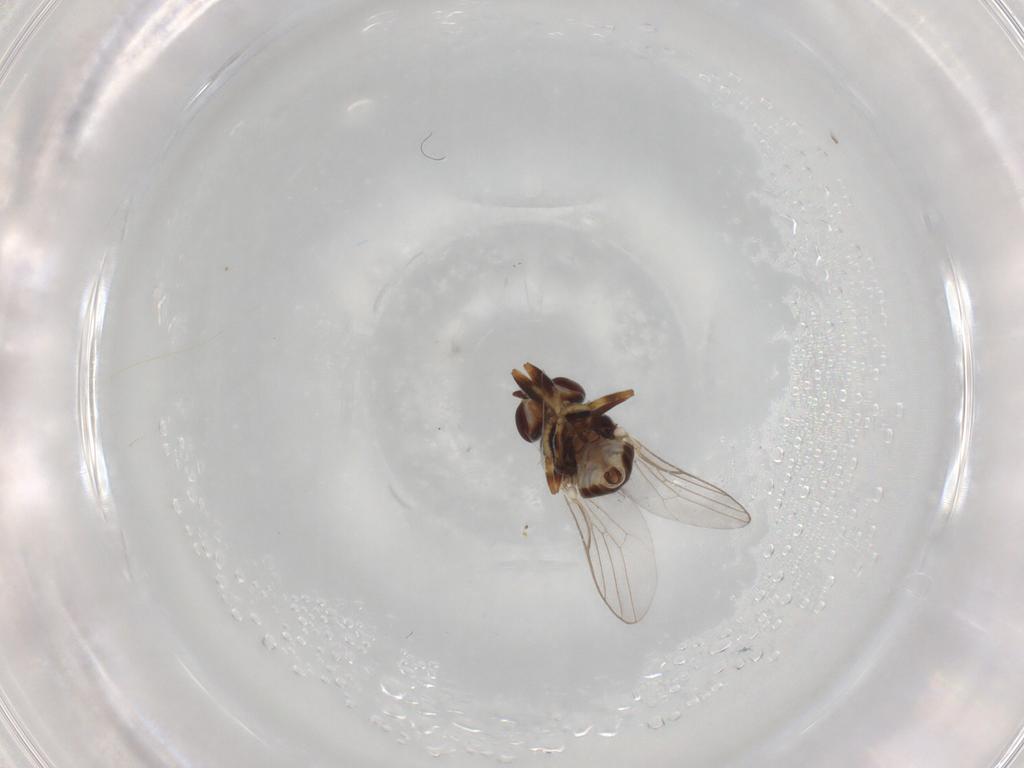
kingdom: Animalia
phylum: Arthropoda
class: Insecta
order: Diptera
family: Chloropidae
